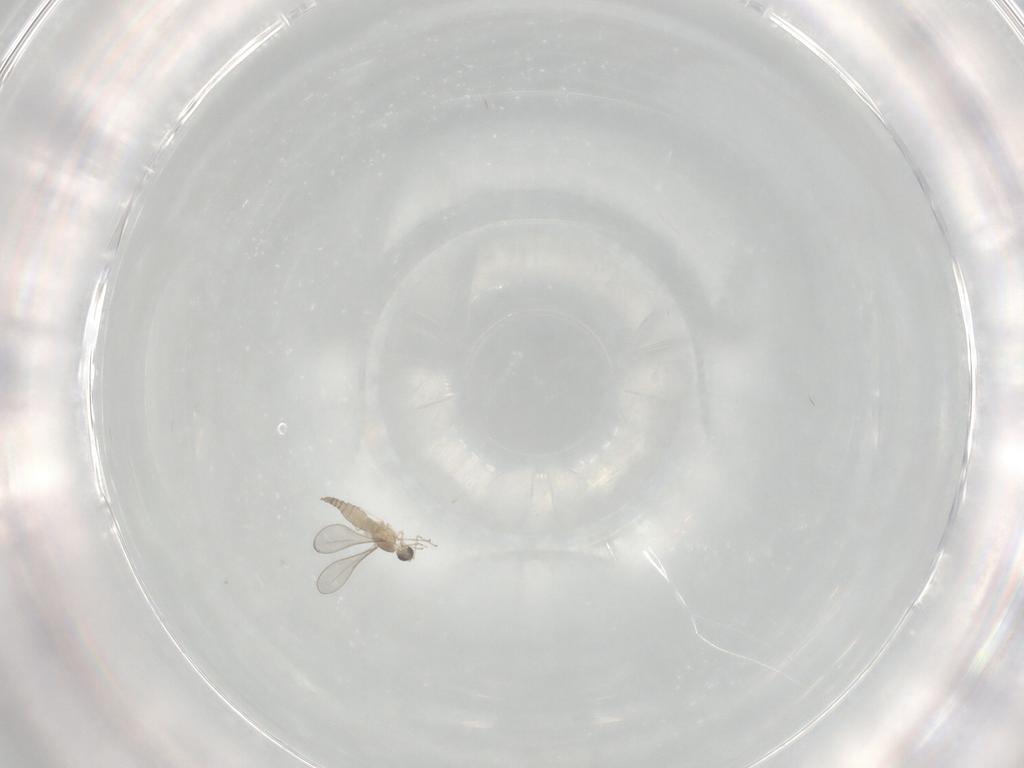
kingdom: Animalia
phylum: Arthropoda
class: Insecta
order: Diptera
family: Cecidomyiidae
